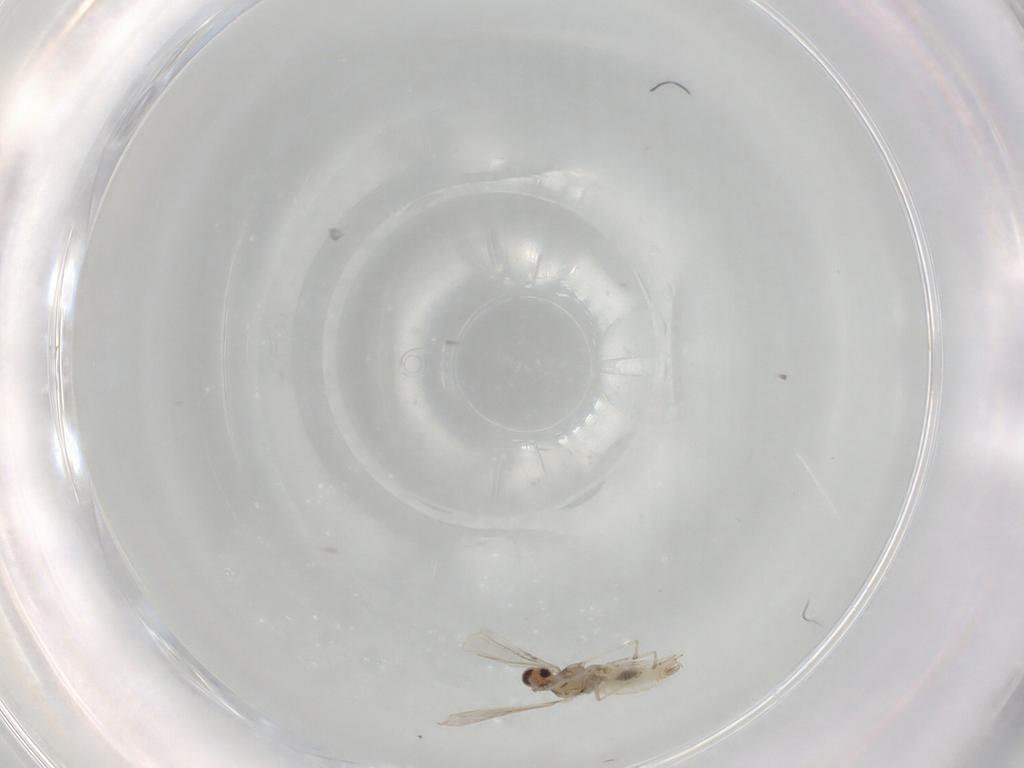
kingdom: Animalia
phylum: Arthropoda
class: Insecta
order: Diptera
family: Cecidomyiidae
